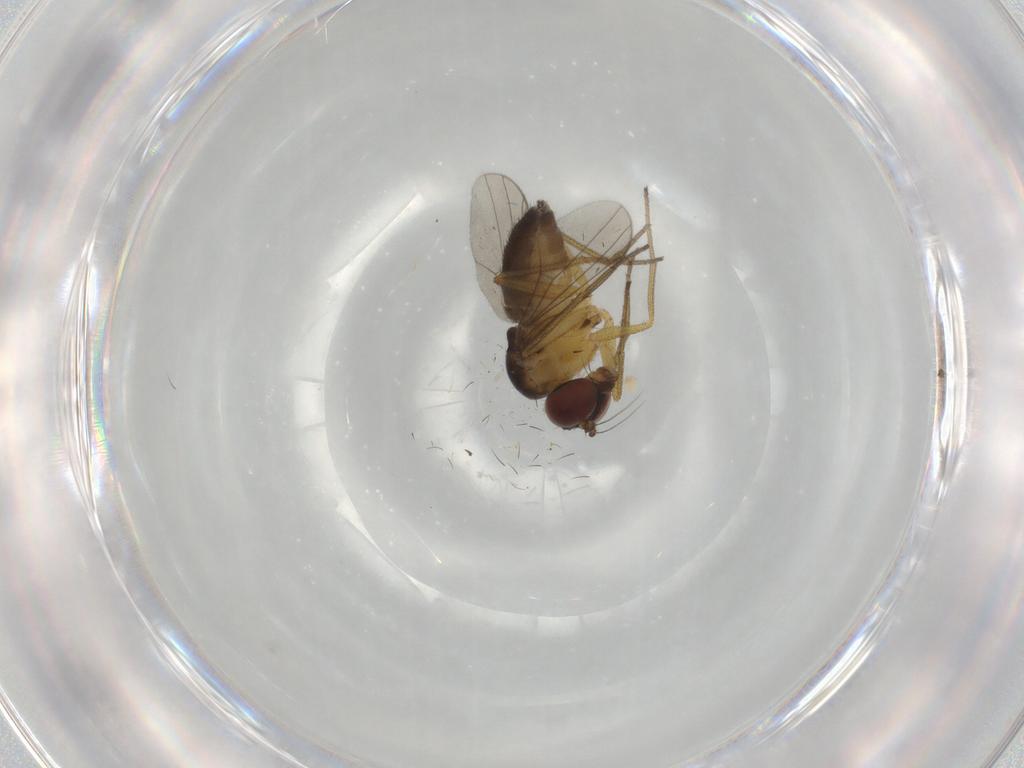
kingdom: Animalia
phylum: Arthropoda
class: Insecta
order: Diptera
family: Dolichopodidae
